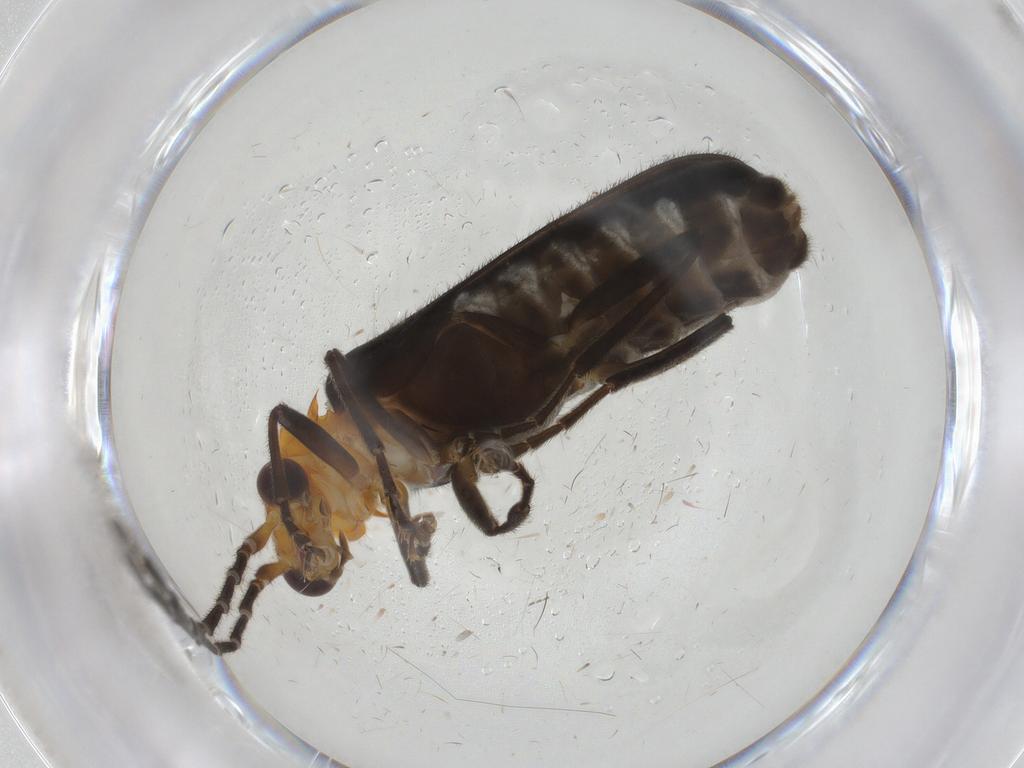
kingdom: Animalia
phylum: Arthropoda
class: Insecta
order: Coleoptera
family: Cantharidae
